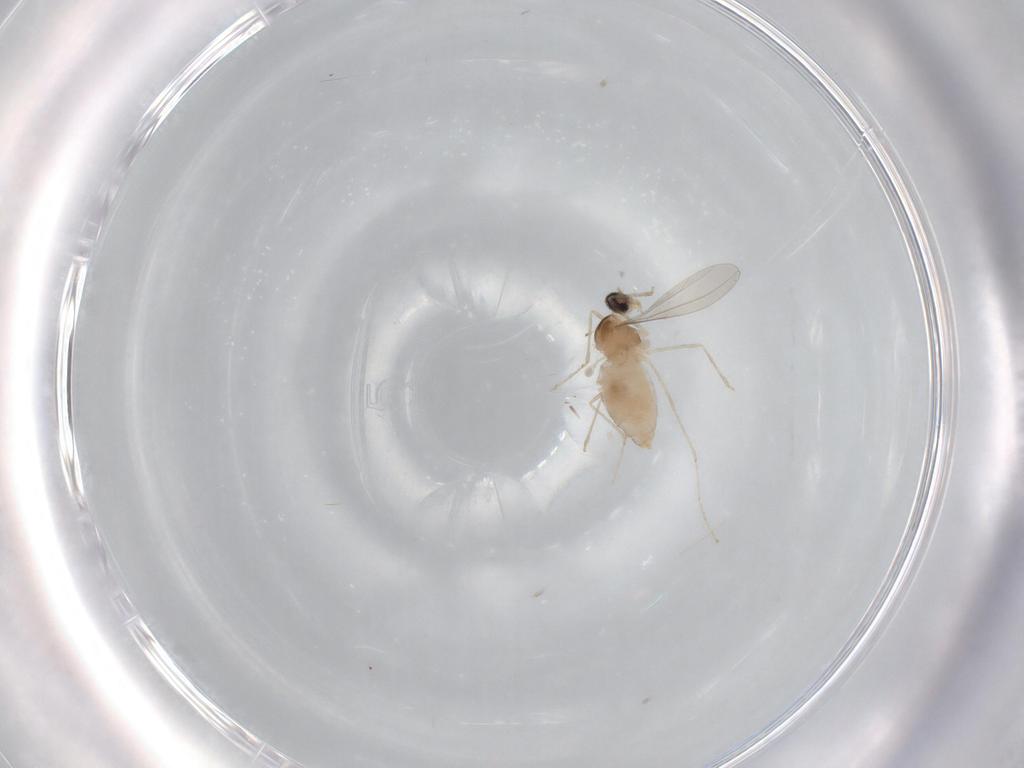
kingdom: Animalia
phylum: Arthropoda
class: Insecta
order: Diptera
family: Cecidomyiidae
